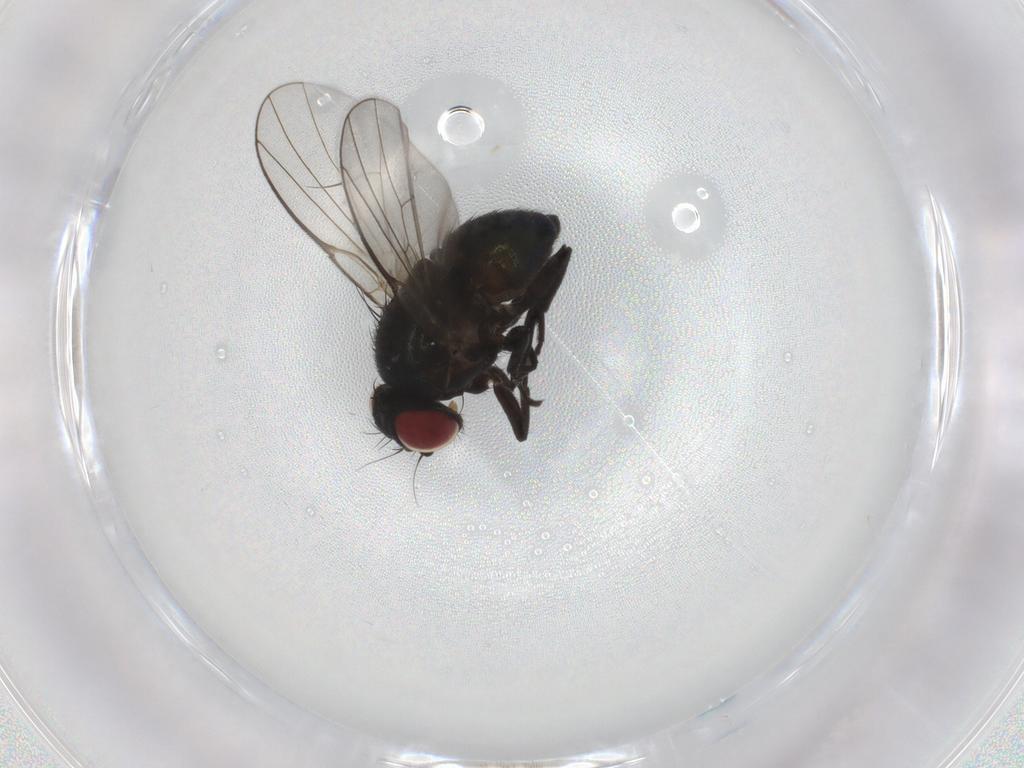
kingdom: Animalia
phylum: Arthropoda
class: Insecta
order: Diptera
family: Agromyzidae
